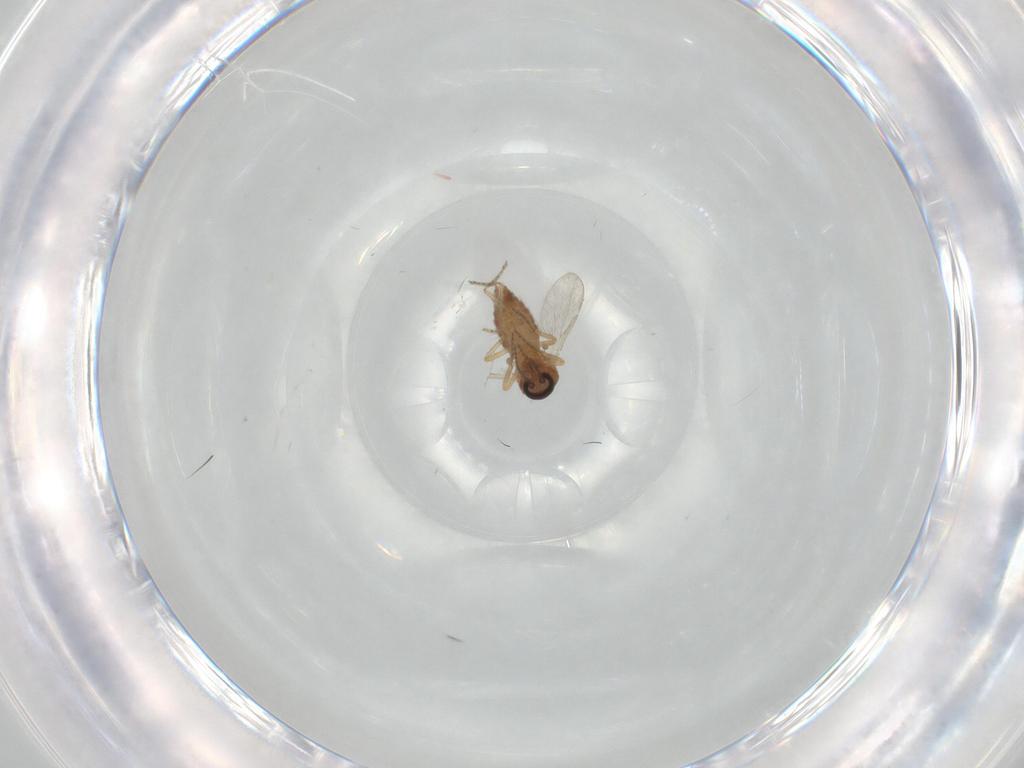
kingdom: Animalia
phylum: Arthropoda
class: Insecta
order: Diptera
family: Ceratopogonidae
